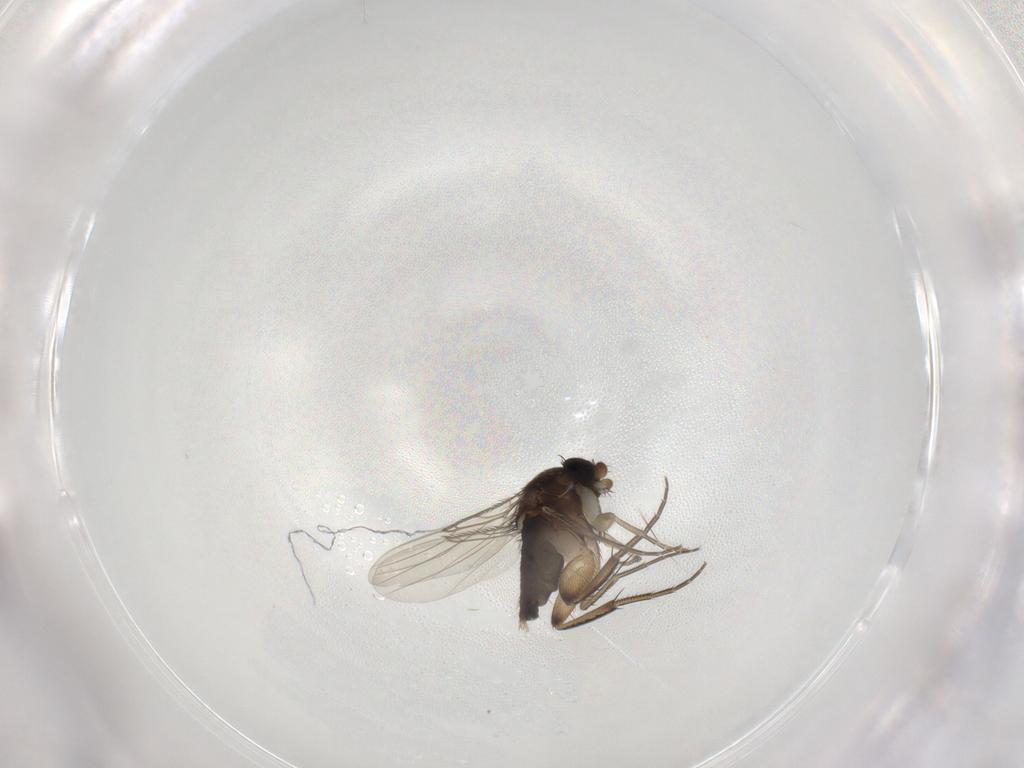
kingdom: Animalia
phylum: Arthropoda
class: Insecta
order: Diptera
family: Phoridae
